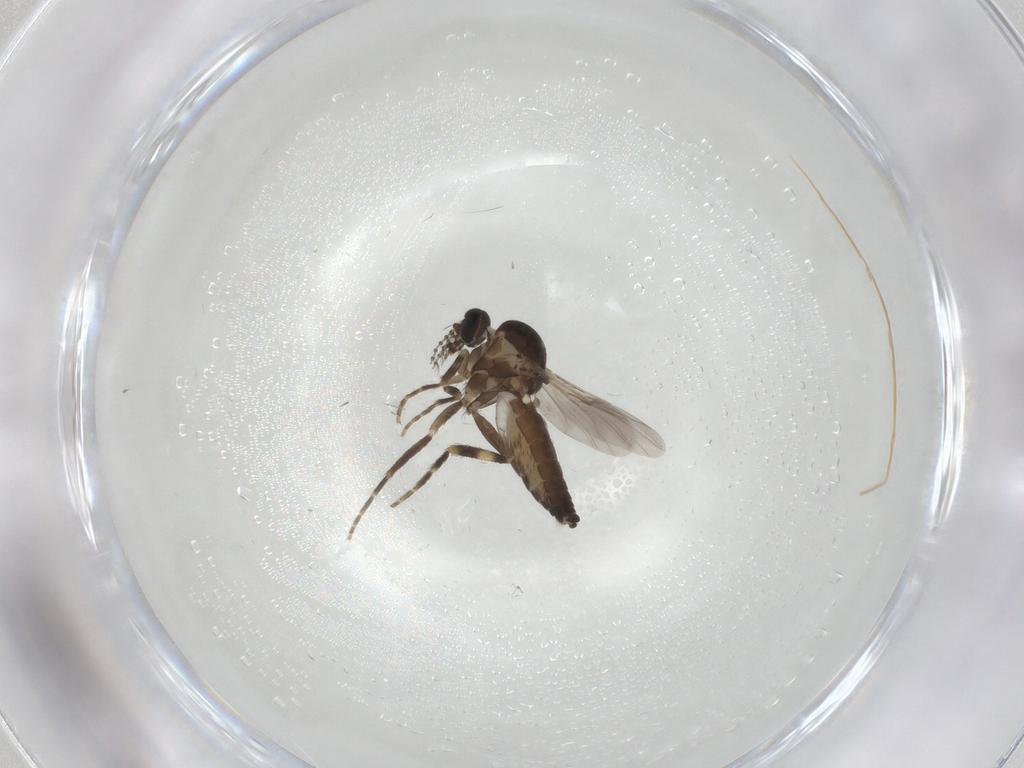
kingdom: Animalia
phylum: Arthropoda
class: Insecta
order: Diptera
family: Ceratopogonidae
